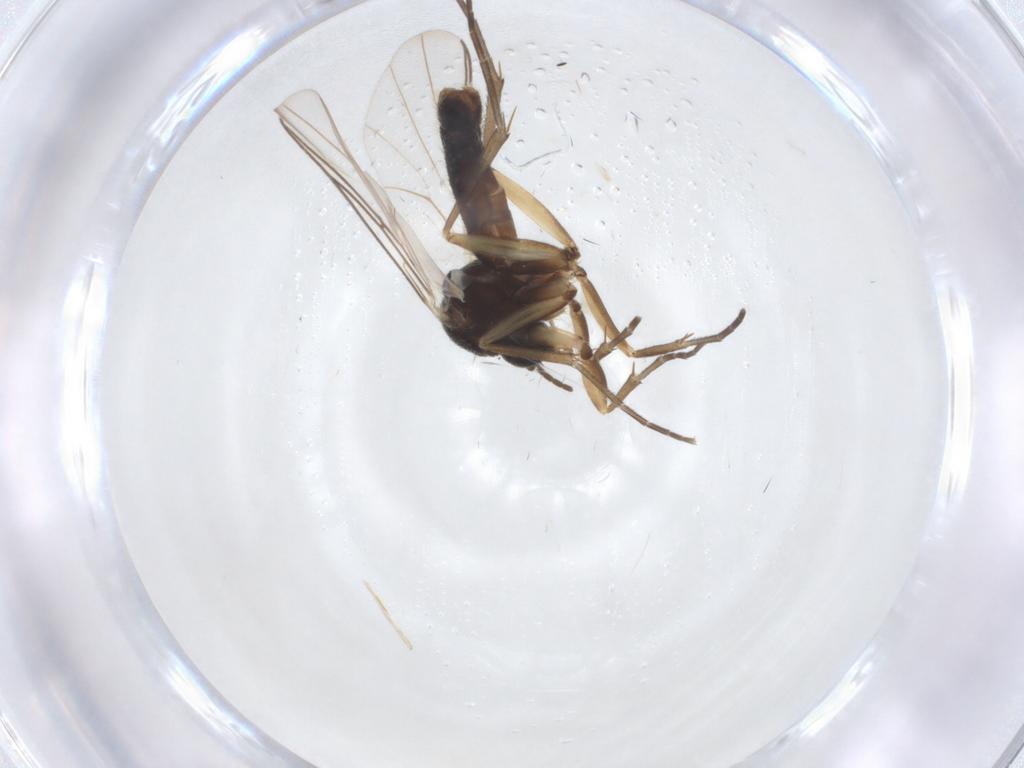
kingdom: Animalia
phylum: Arthropoda
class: Insecta
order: Diptera
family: Mycetophilidae
